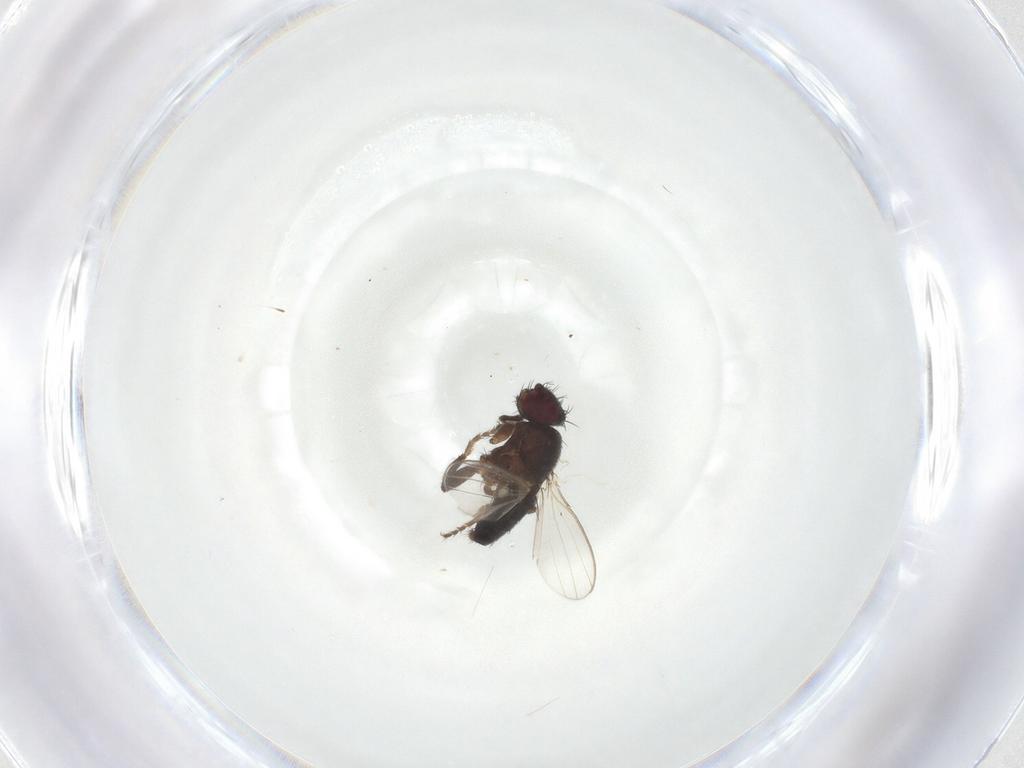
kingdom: Animalia
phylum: Arthropoda
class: Insecta
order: Diptera
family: Milichiidae
